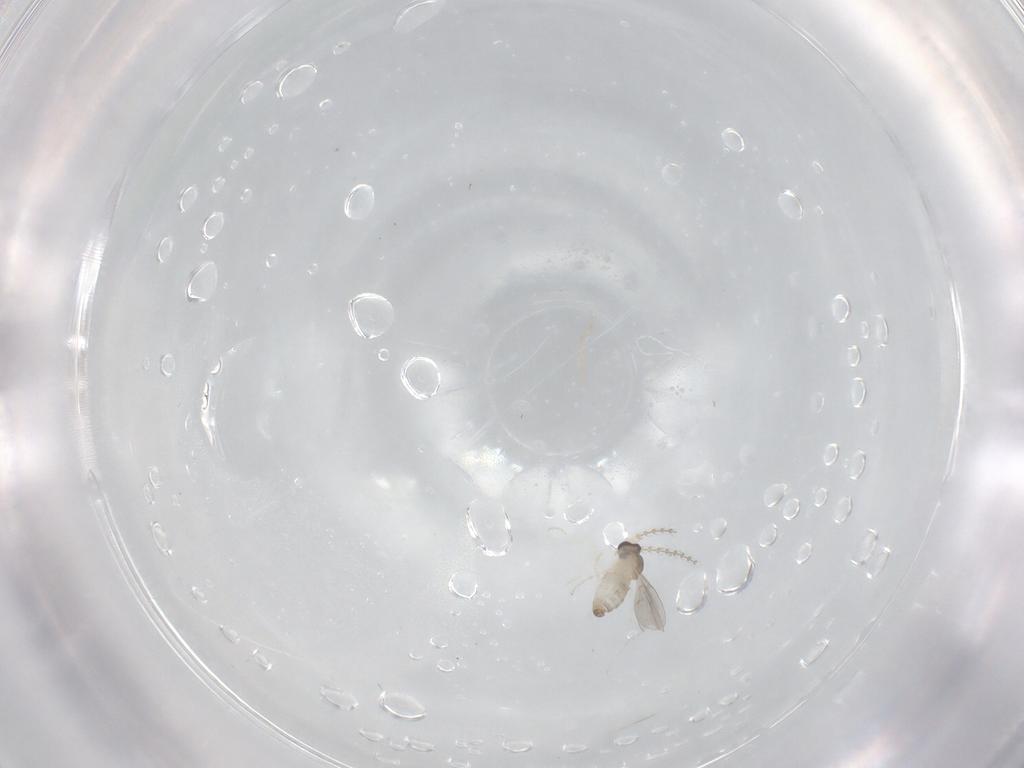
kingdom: Animalia
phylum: Arthropoda
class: Insecta
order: Diptera
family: Cecidomyiidae
